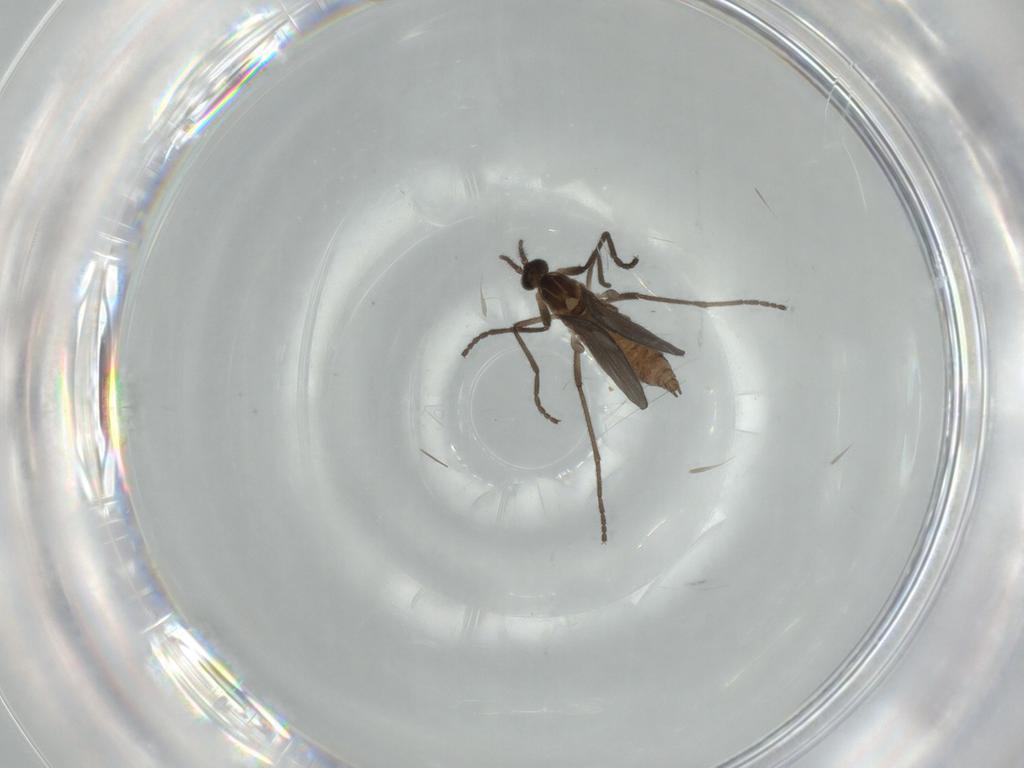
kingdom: Animalia
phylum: Arthropoda
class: Insecta
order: Diptera
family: Cecidomyiidae
